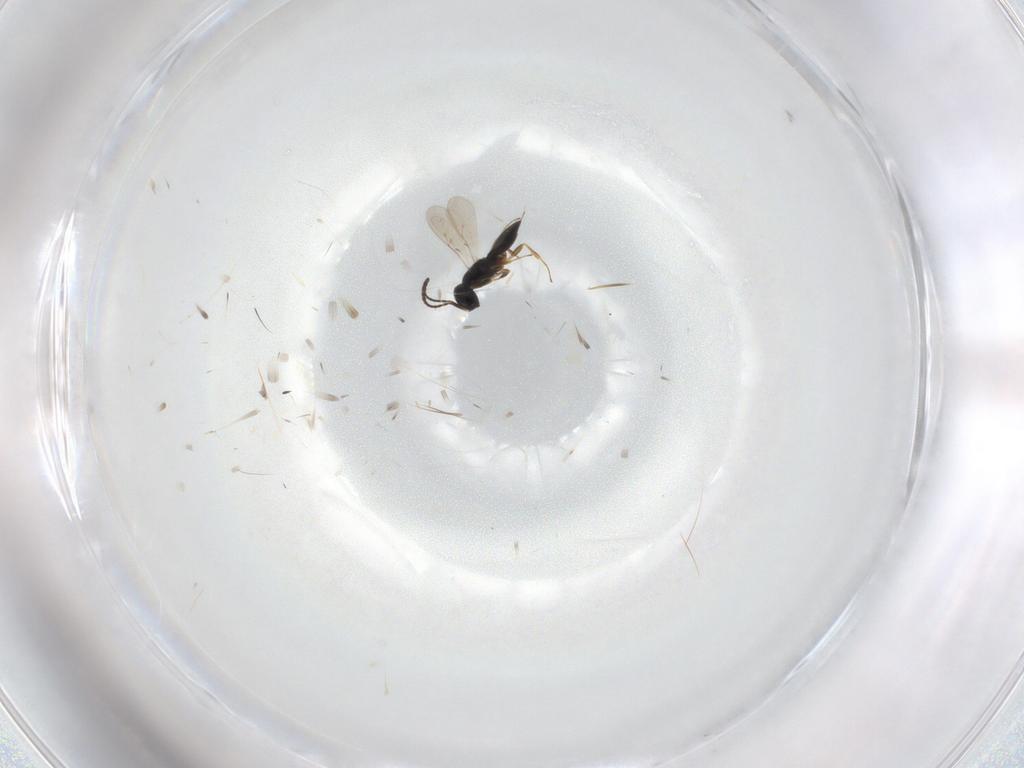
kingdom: Animalia
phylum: Arthropoda
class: Insecta
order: Hymenoptera
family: Scelionidae
